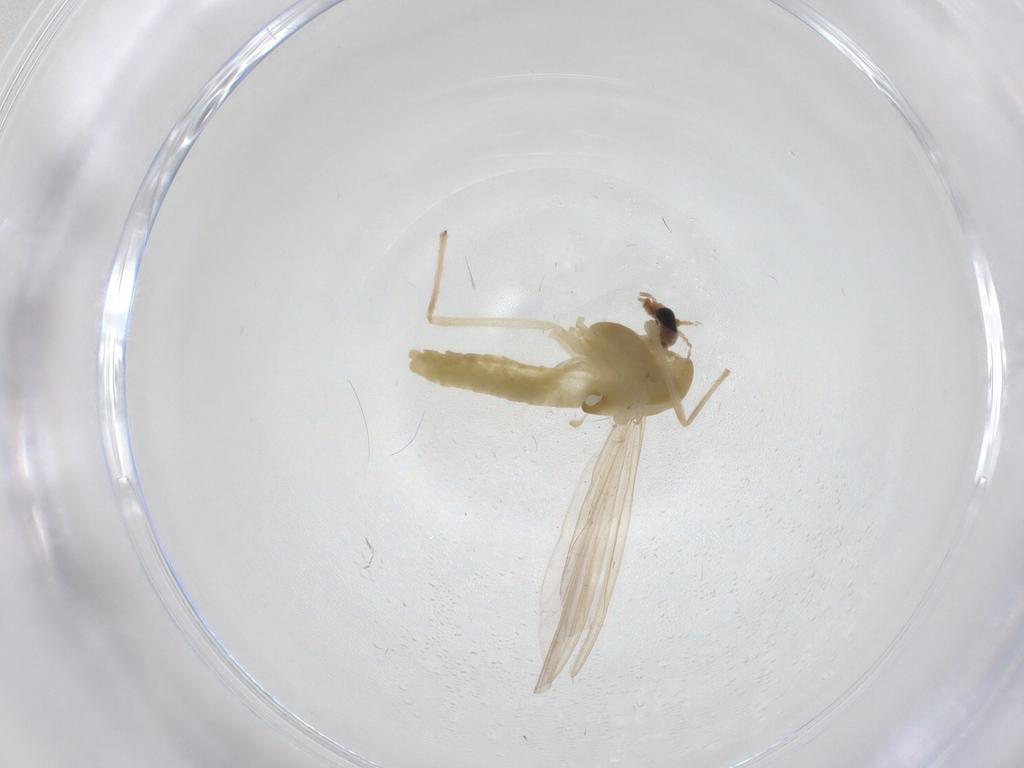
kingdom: Animalia
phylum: Arthropoda
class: Insecta
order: Diptera
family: Chironomidae
